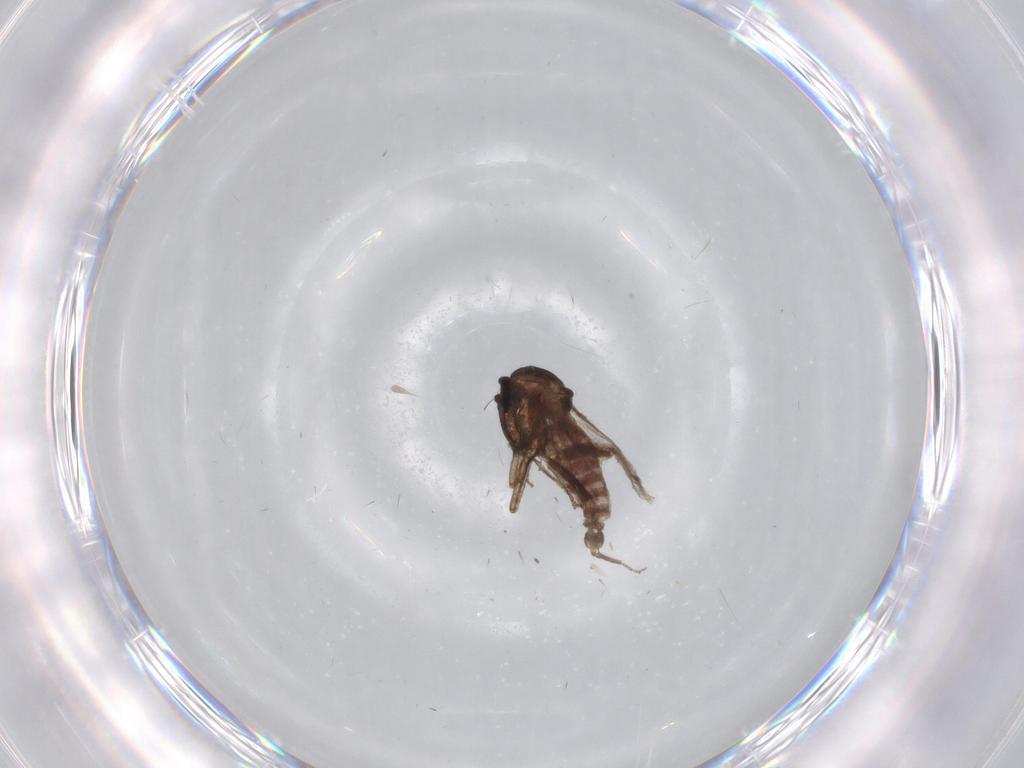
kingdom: Animalia
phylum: Arthropoda
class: Insecta
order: Diptera
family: Ceratopogonidae
